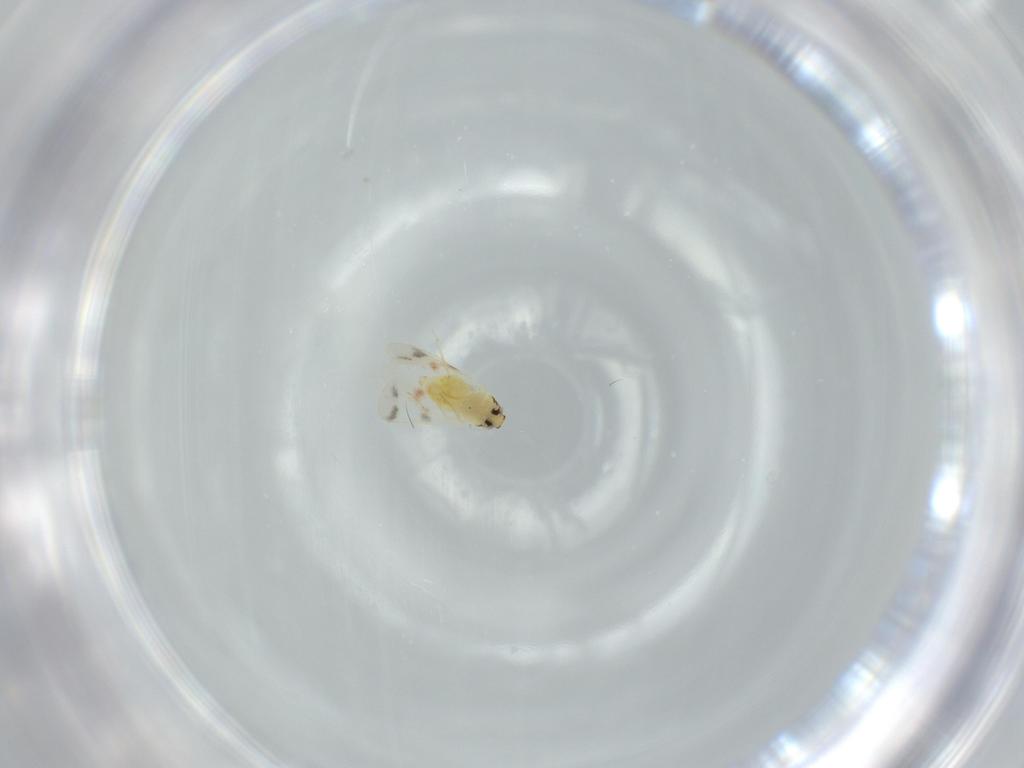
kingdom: Animalia
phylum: Arthropoda
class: Insecta
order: Hemiptera
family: Aleyrodidae
